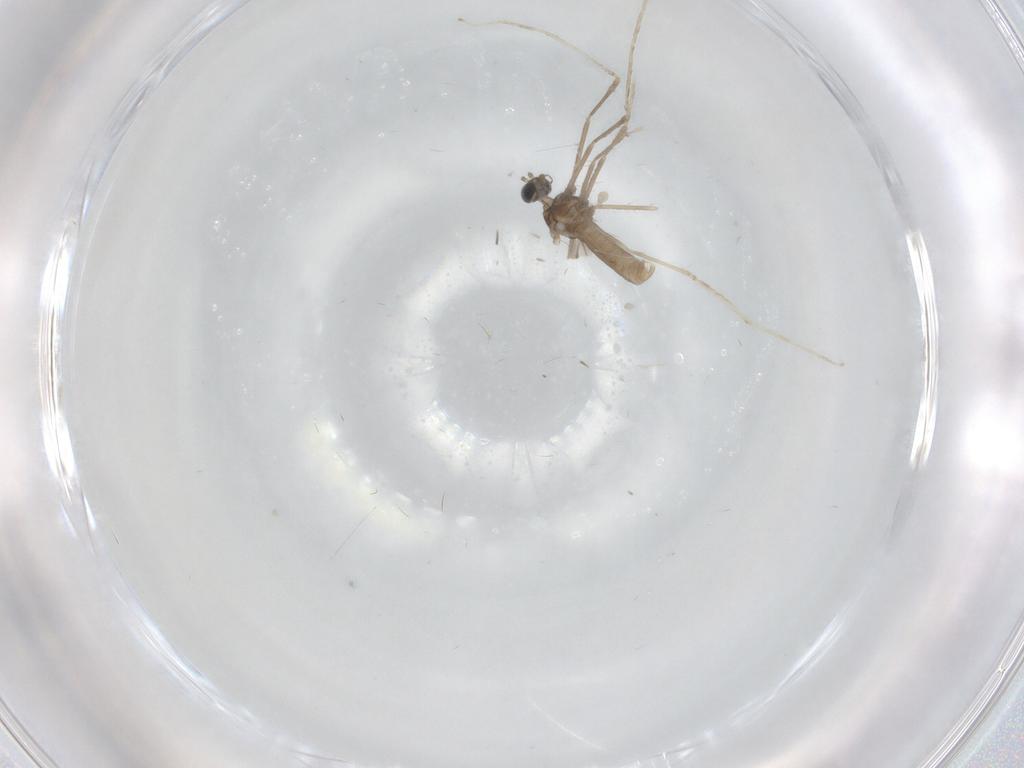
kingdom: Animalia
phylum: Arthropoda
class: Insecta
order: Diptera
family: Cecidomyiidae
